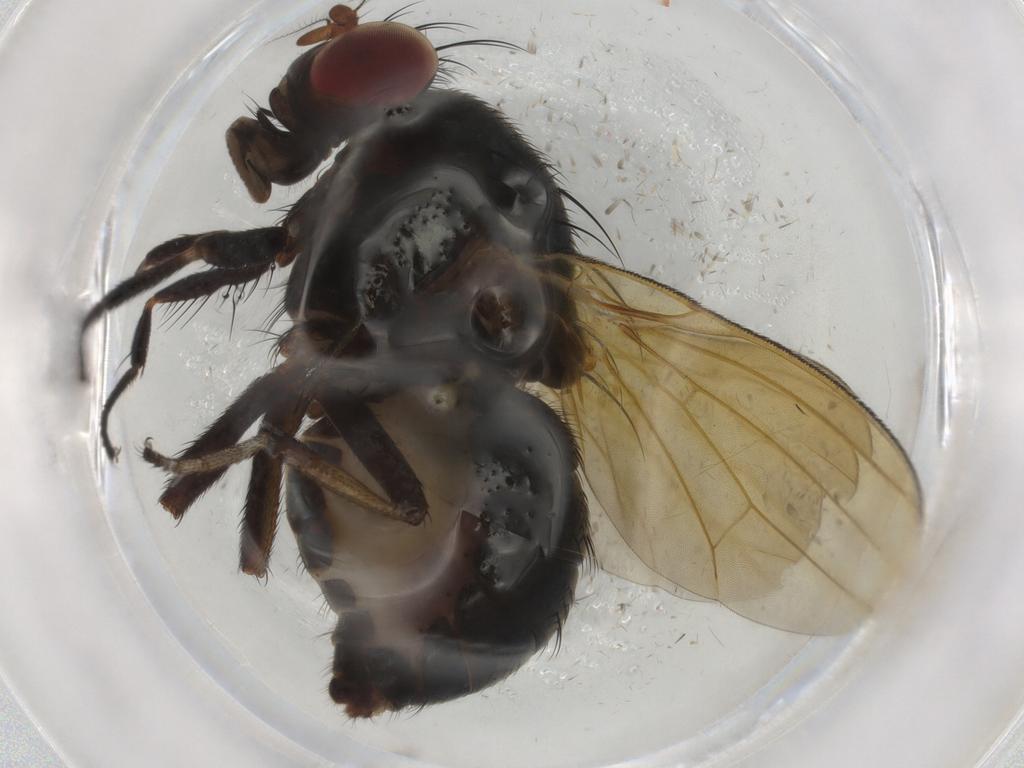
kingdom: Animalia
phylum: Arthropoda
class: Insecta
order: Diptera
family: Lauxaniidae
